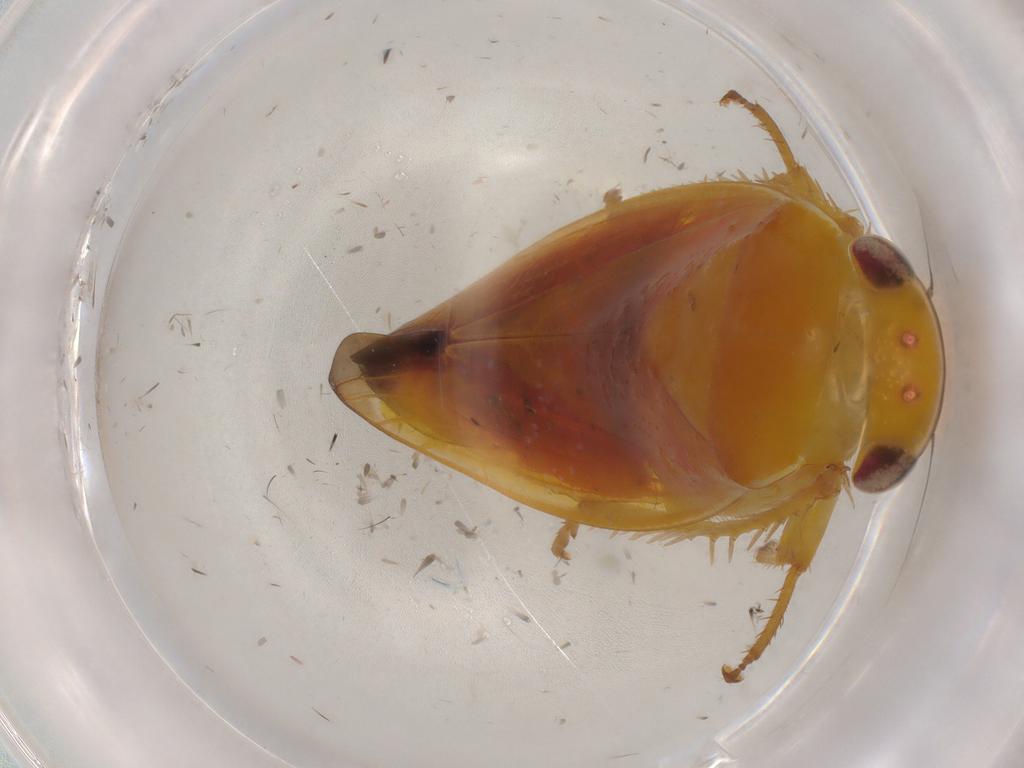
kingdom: Animalia
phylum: Arthropoda
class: Insecta
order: Hemiptera
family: Cicadellidae
